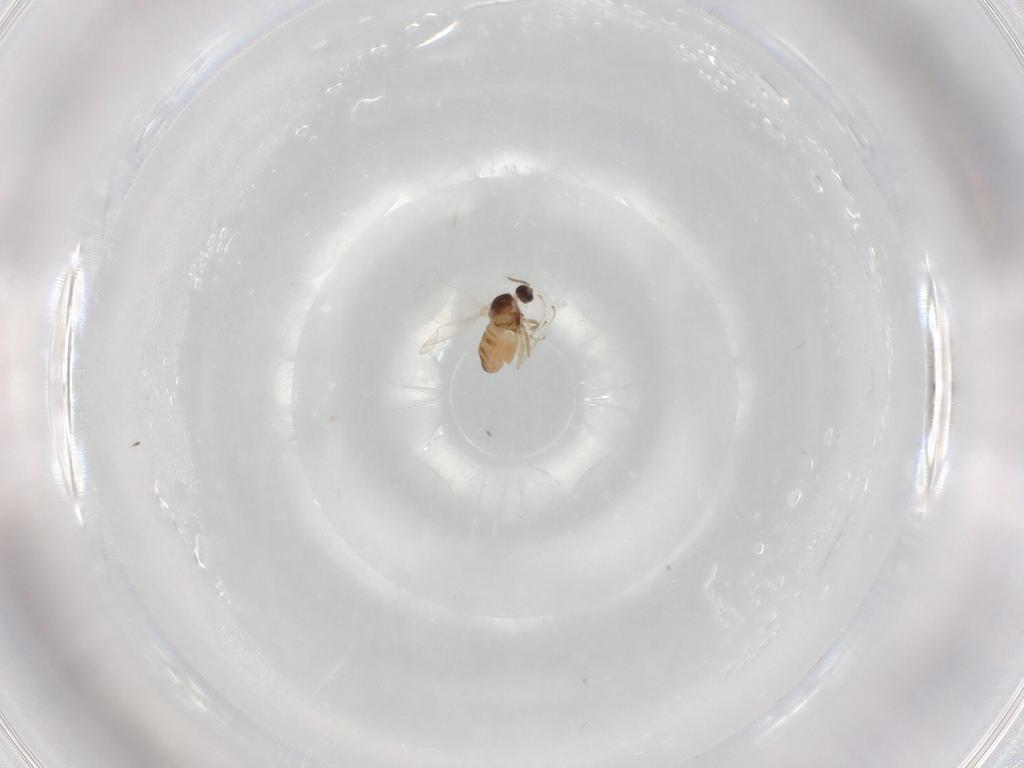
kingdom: Animalia
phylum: Arthropoda
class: Insecta
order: Diptera
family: Cecidomyiidae
